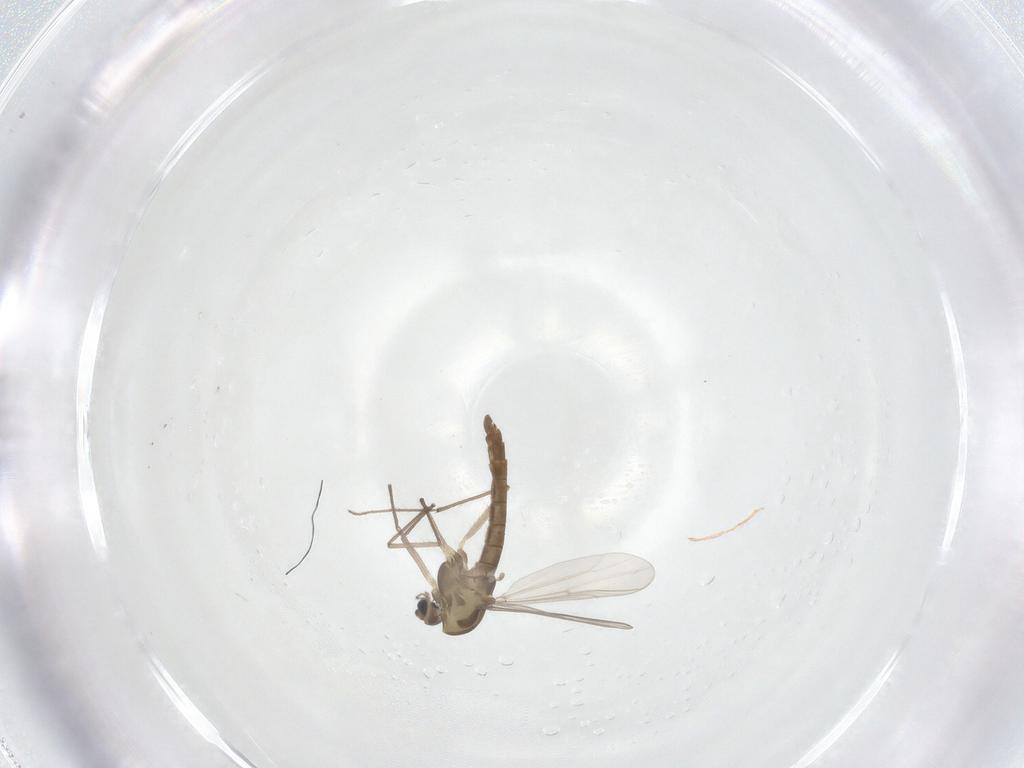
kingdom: Animalia
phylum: Arthropoda
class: Insecta
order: Diptera
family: Chironomidae
